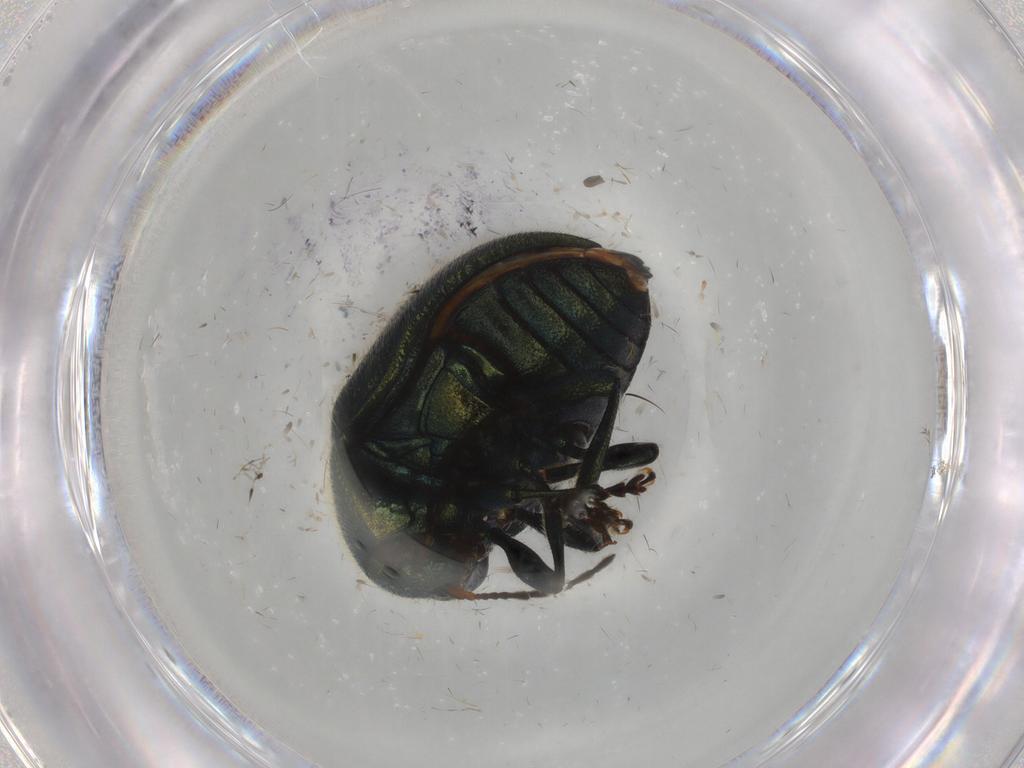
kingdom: Animalia
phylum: Arthropoda
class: Insecta
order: Coleoptera
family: Chrysomelidae
